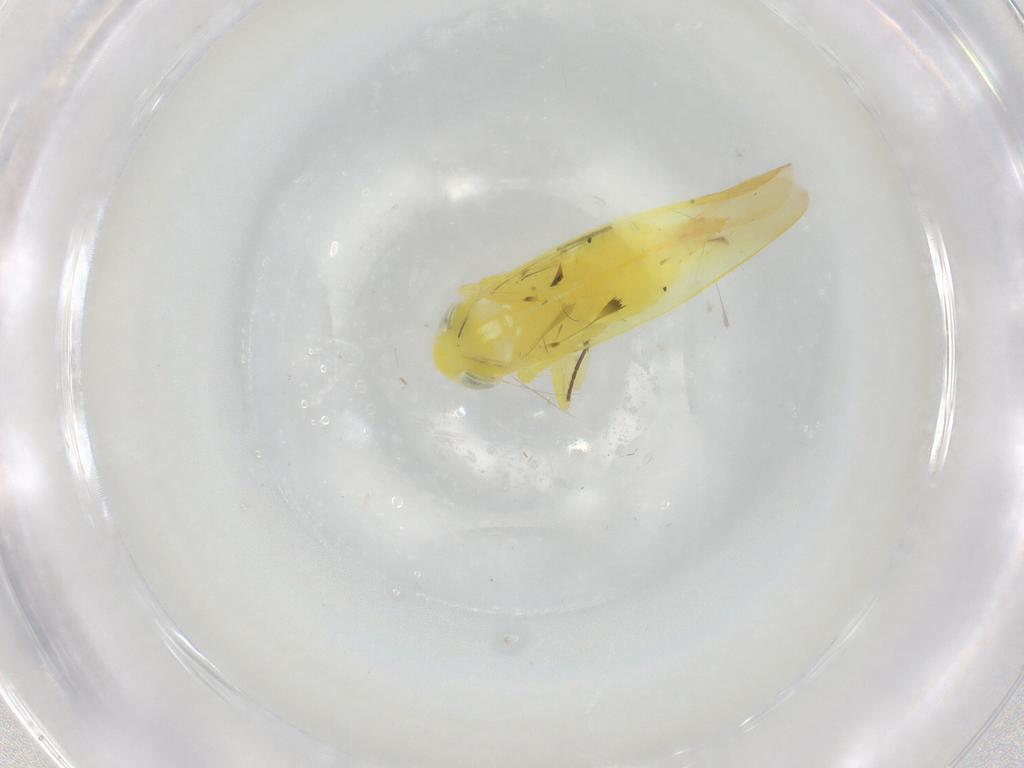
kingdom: Animalia
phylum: Arthropoda
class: Insecta
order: Hemiptera
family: Cicadellidae
